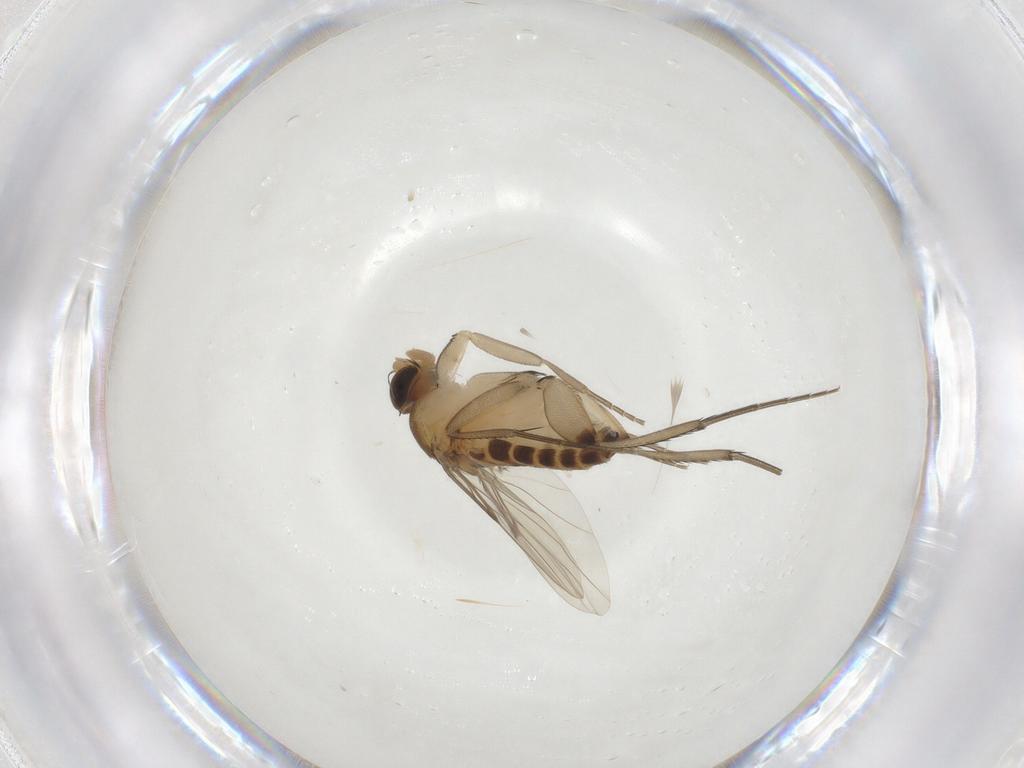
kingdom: Animalia
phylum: Arthropoda
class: Insecta
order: Diptera
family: Phoridae
